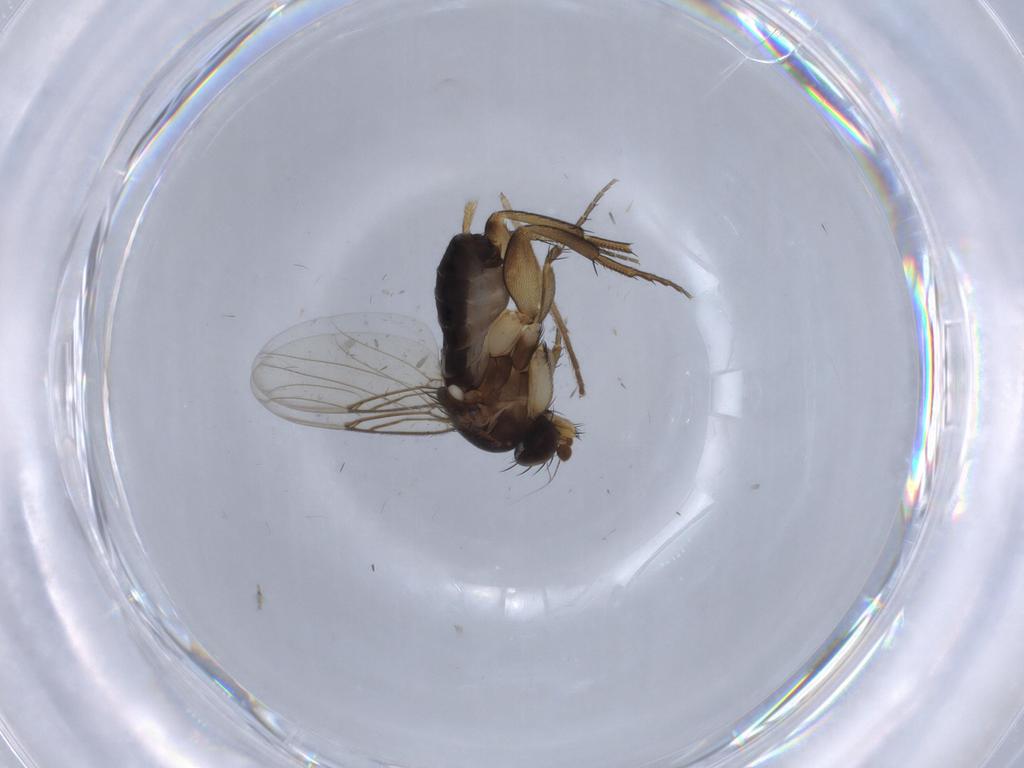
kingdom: Animalia
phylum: Arthropoda
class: Insecta
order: Diptera
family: Phoridae
